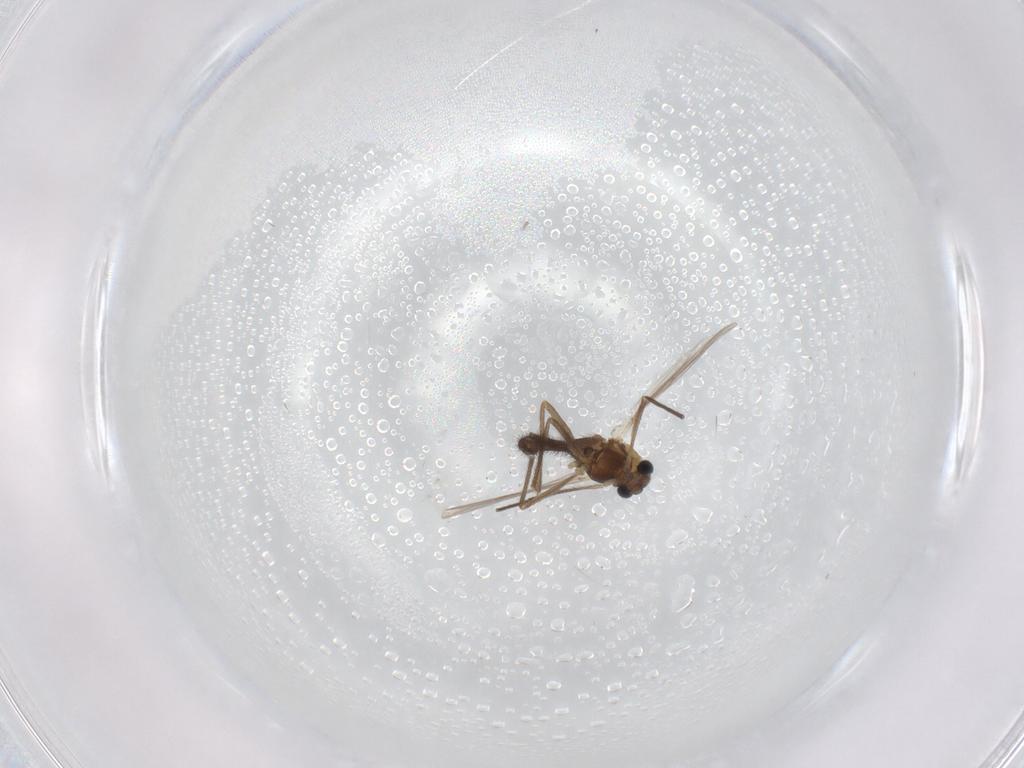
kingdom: Animalia
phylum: Arthropoda
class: Insecta
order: Diptera
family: Chironomidae
